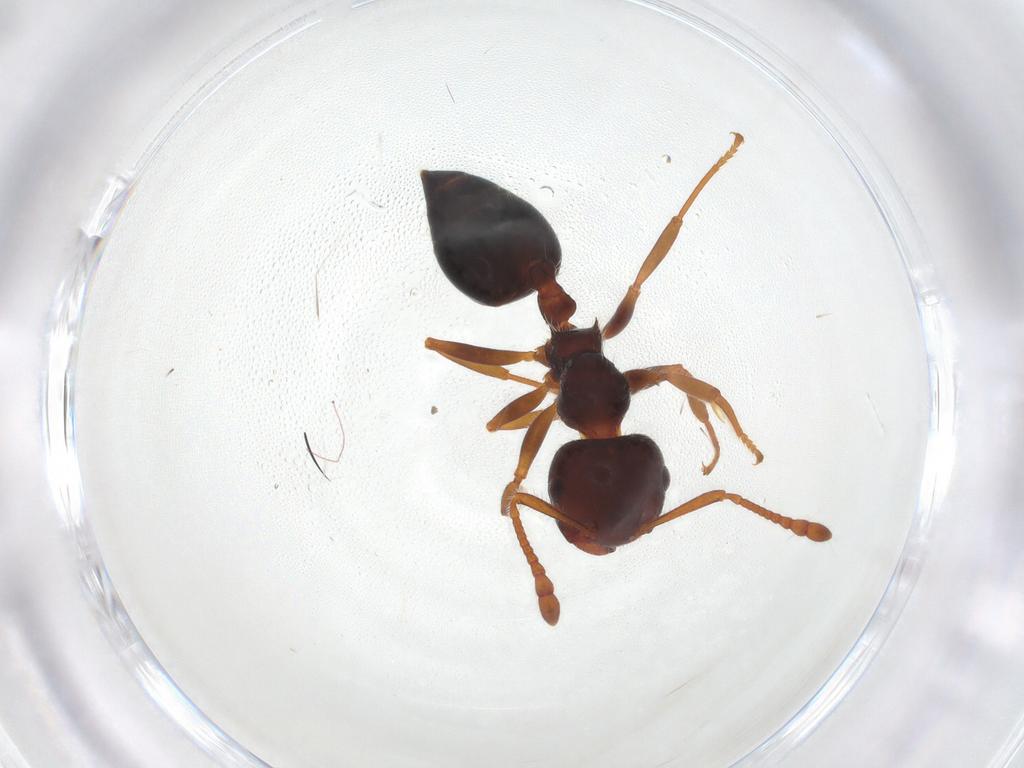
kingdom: Animalia
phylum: Arthropoda
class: Insecta
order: Hymenoptera
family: Formicidae
